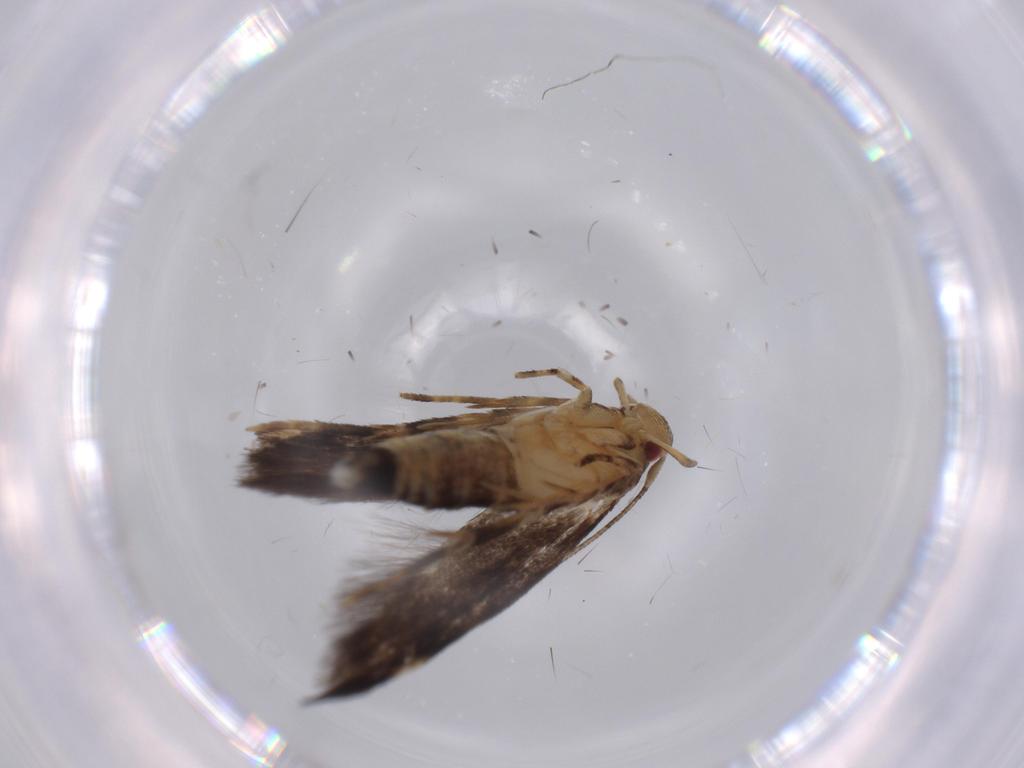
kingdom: Animalia
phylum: Arthropoda
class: Insecta
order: Lepidoptera
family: Momphidae
